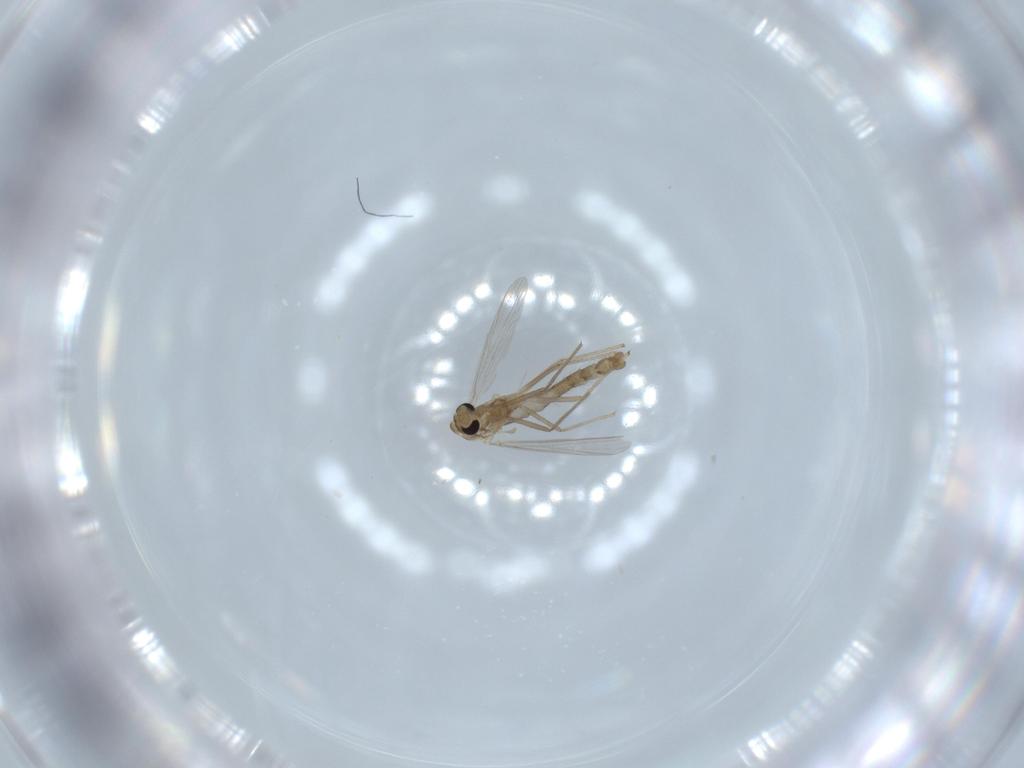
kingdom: Animalia
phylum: Arthropoda
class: Insecta
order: Diptera
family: Chironomidae
